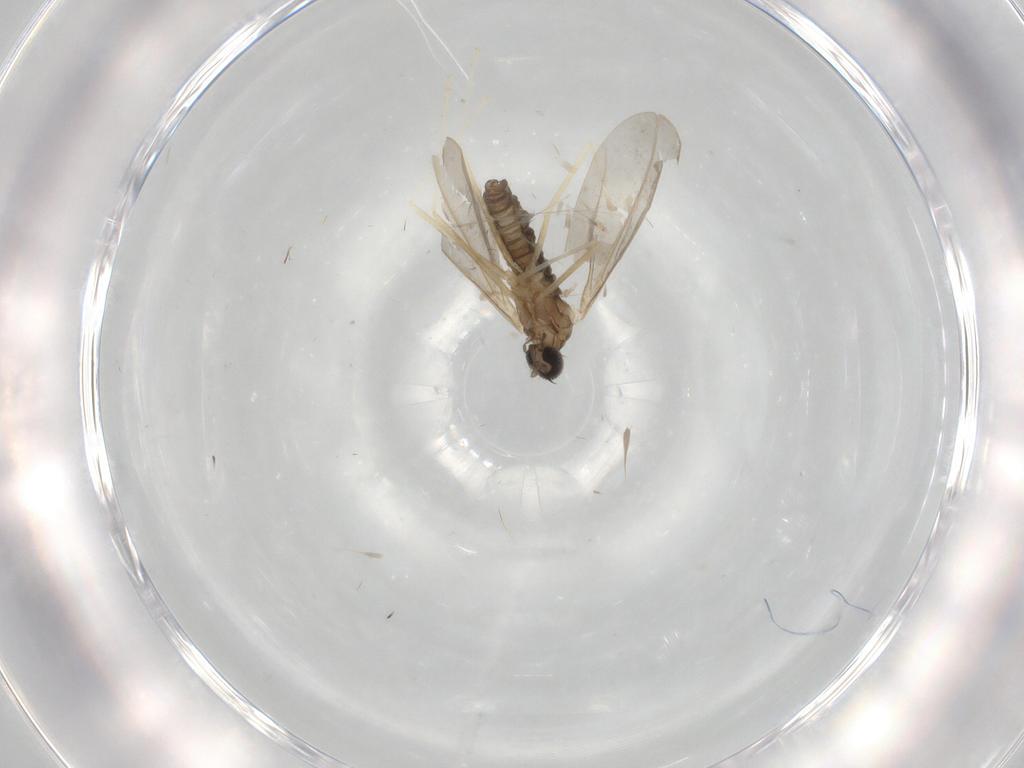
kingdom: Animalia
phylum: Arthropoda
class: Insecta
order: Diptera
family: Cecidomyiidae
